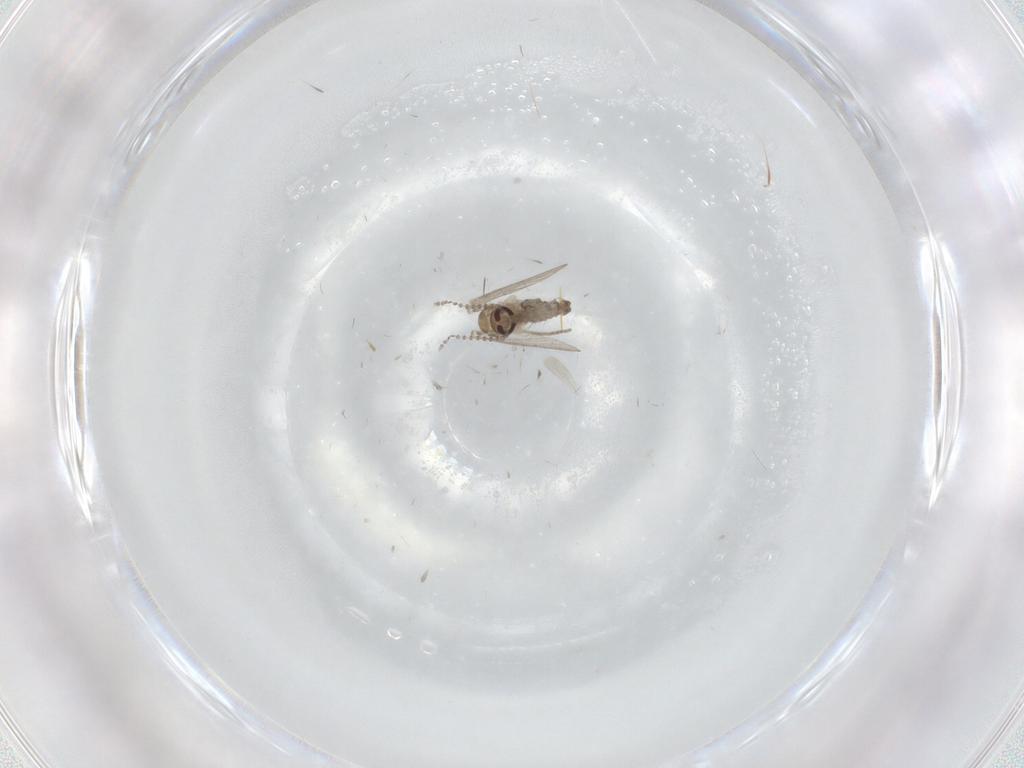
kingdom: Animalia
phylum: Arthropoda
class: Insecta
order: Diptera
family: Psychodidae
